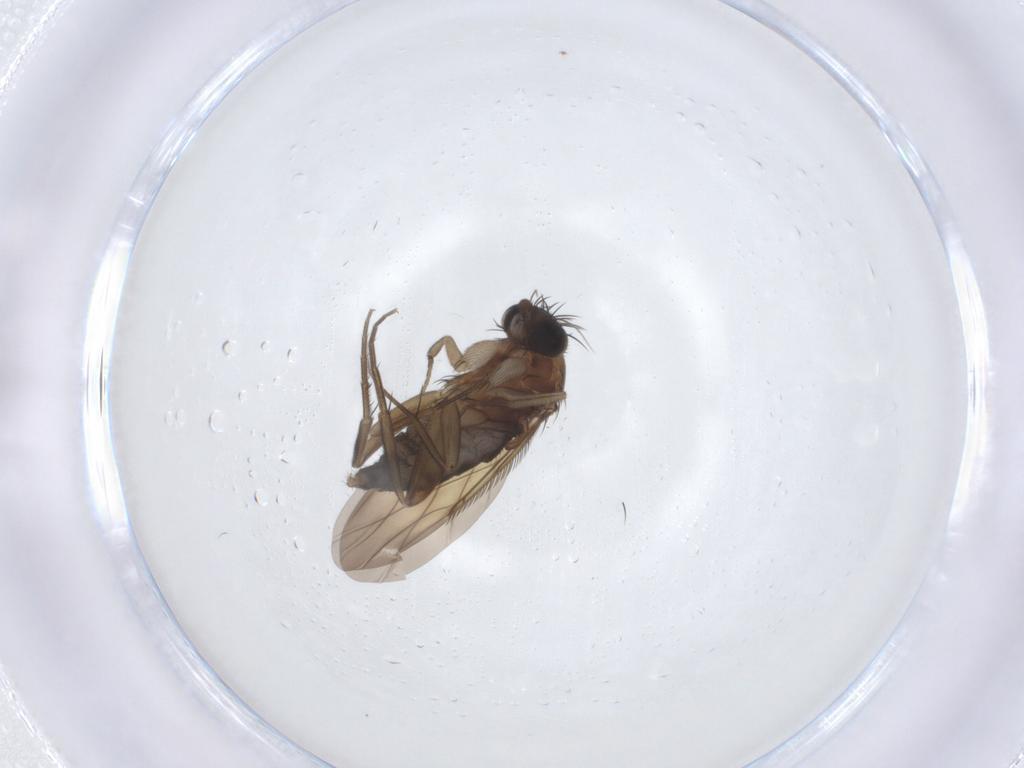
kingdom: Animalia
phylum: Arthropoda
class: Insecta
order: Diptera
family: Phoridae
